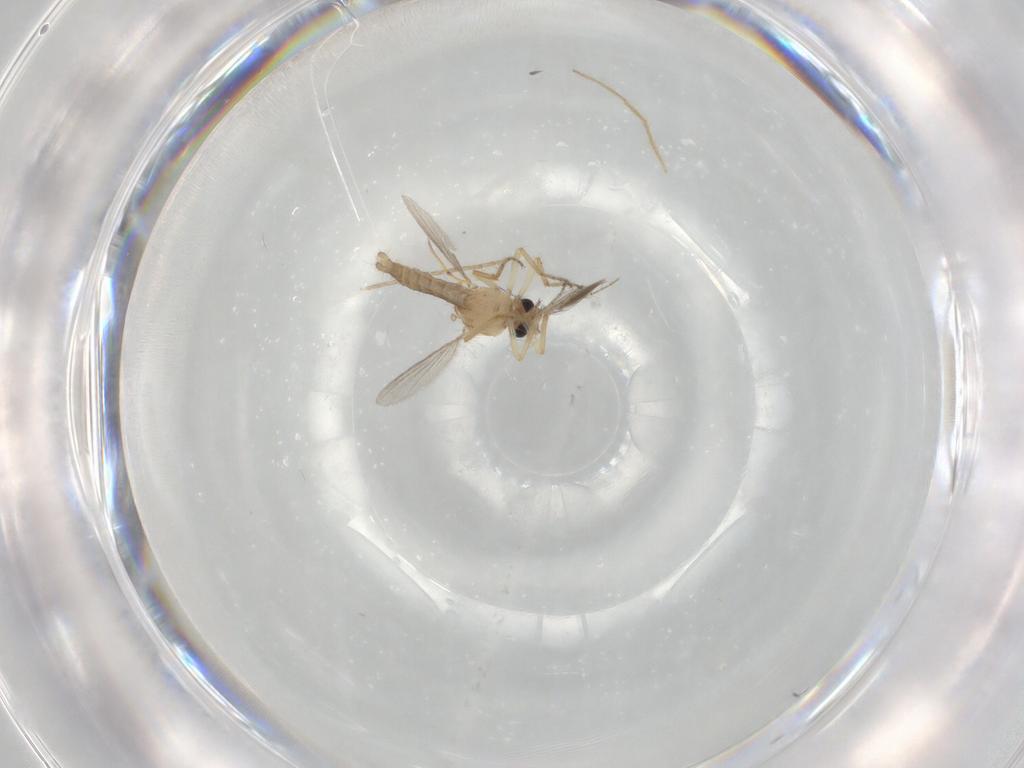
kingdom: Animalia
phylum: Arthropoda
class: Insecta
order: Diptera
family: Ceratopogonidae
